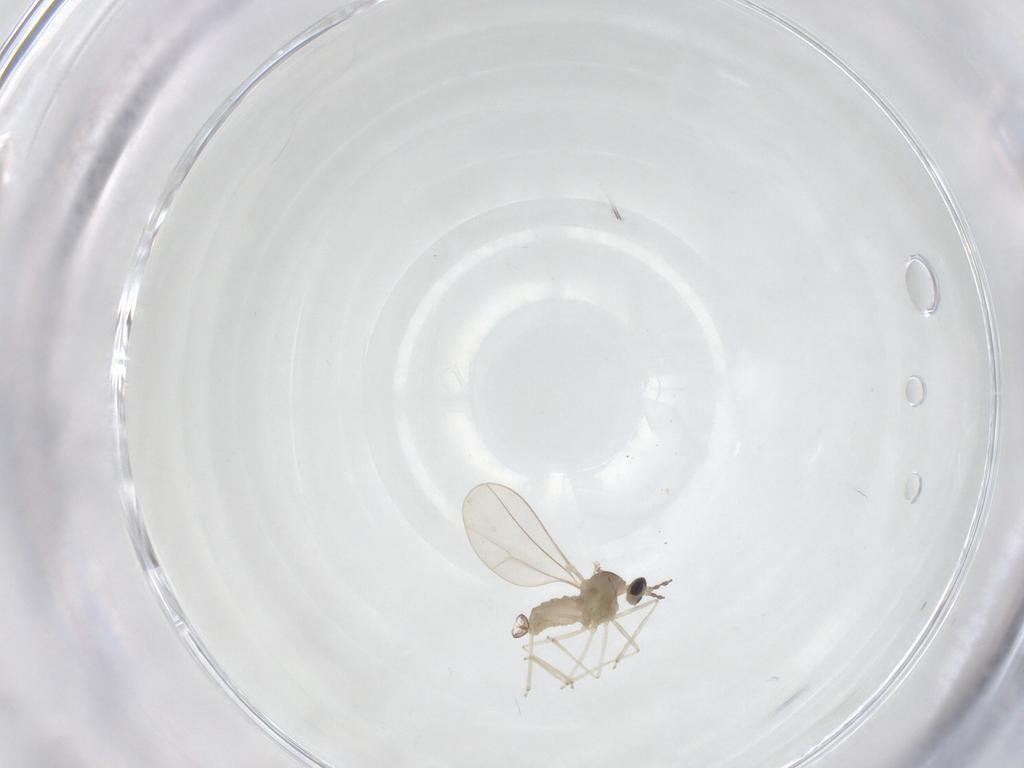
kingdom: Animalia
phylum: Arthropoda
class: Insecta
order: Diptera
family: Cecidomyiidae
